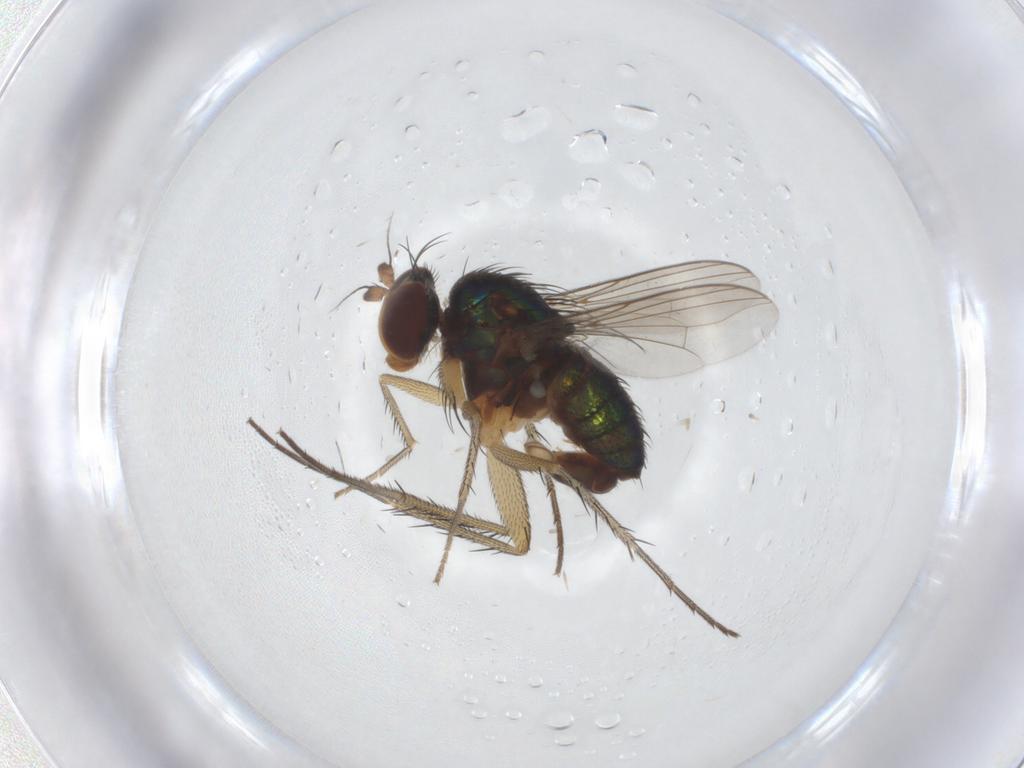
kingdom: Animalia
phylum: Arthropoda
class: Insecta
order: Diptera
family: Dolichopodidae
